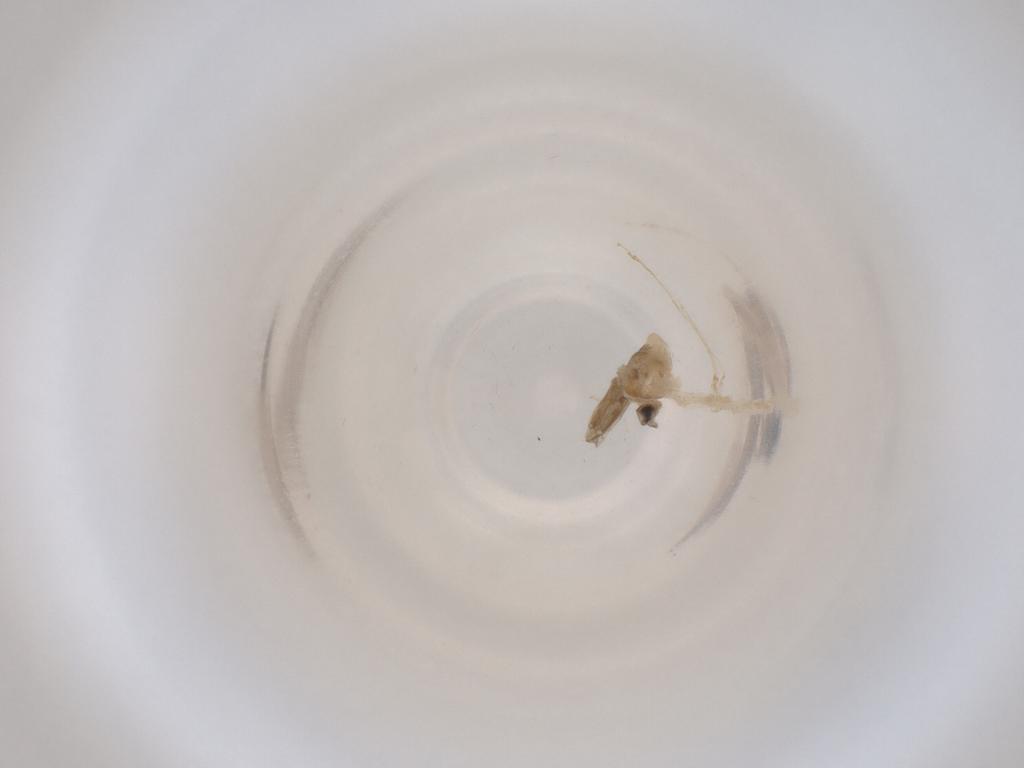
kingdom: Animalia
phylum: Arthropoda
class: Insecta
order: Diptera
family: Cecidomyiidae
